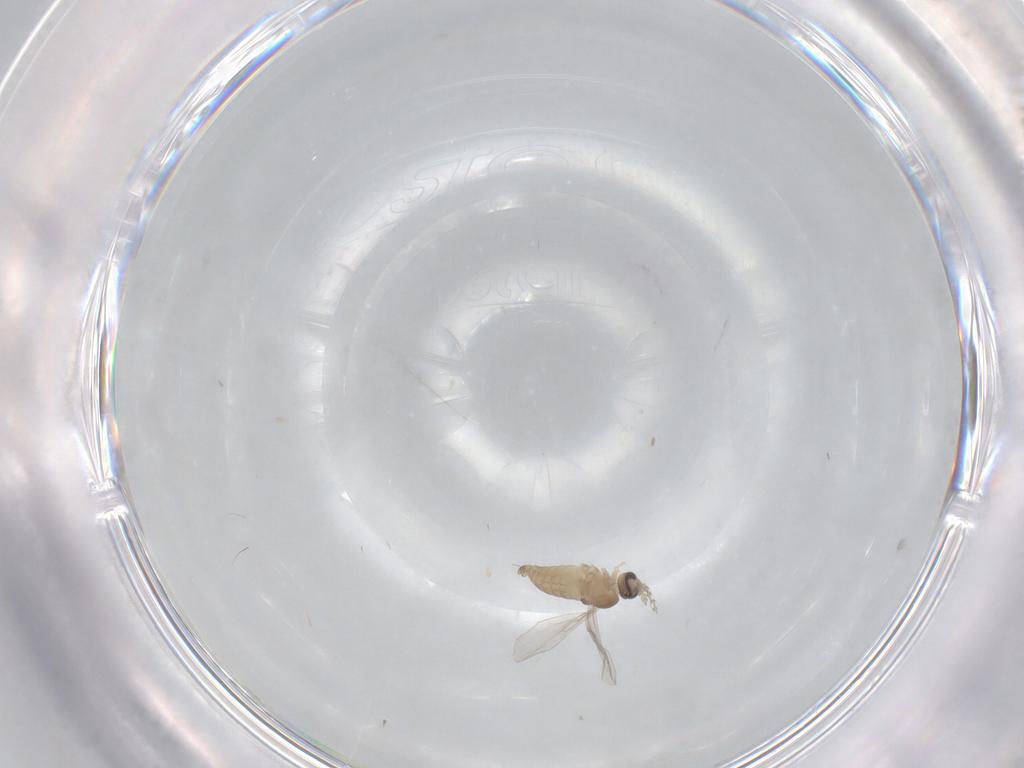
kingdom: Animalia
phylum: Arthropoda
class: Insecta
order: Diptera
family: Cecidomyiidae
